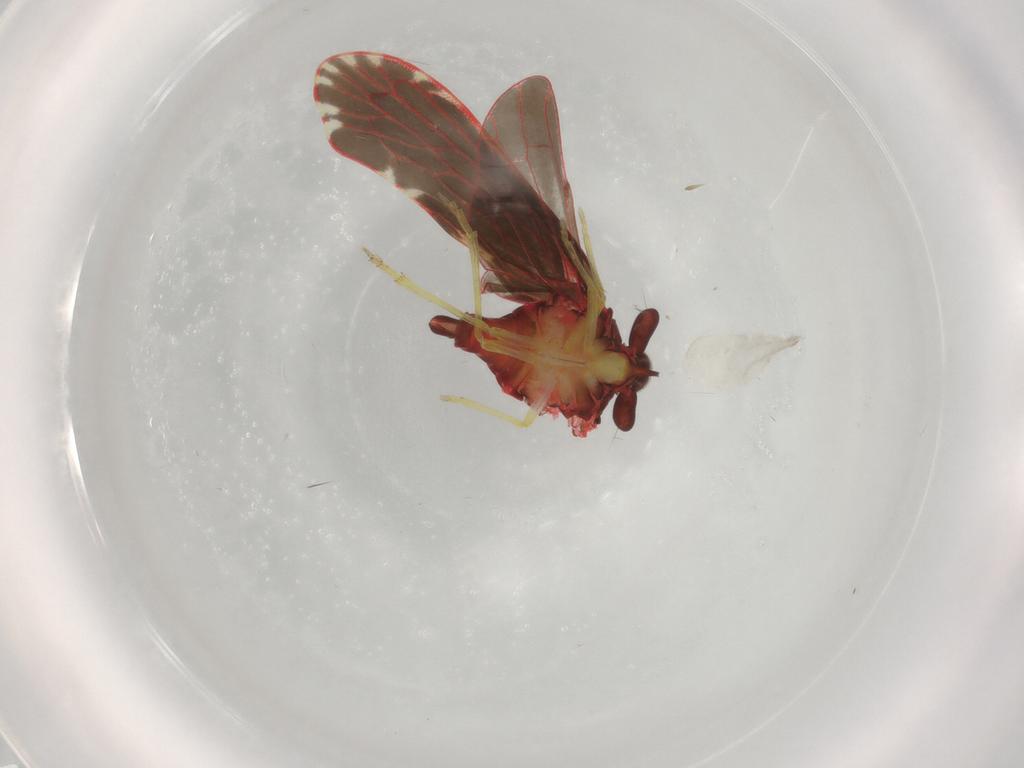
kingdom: Animalia
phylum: Arthropoda
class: Insecta
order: Hemiptera
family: Derbidae
